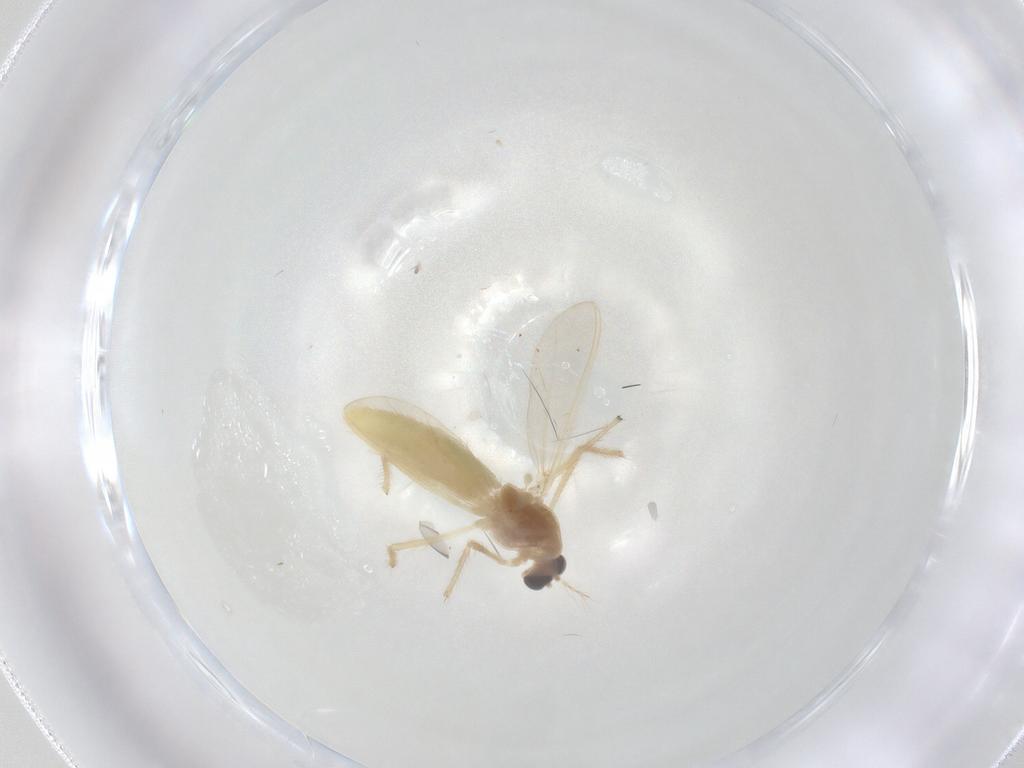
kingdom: Animalia
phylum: Arthropoda
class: Insecta
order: Diptera
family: Chironomidae
